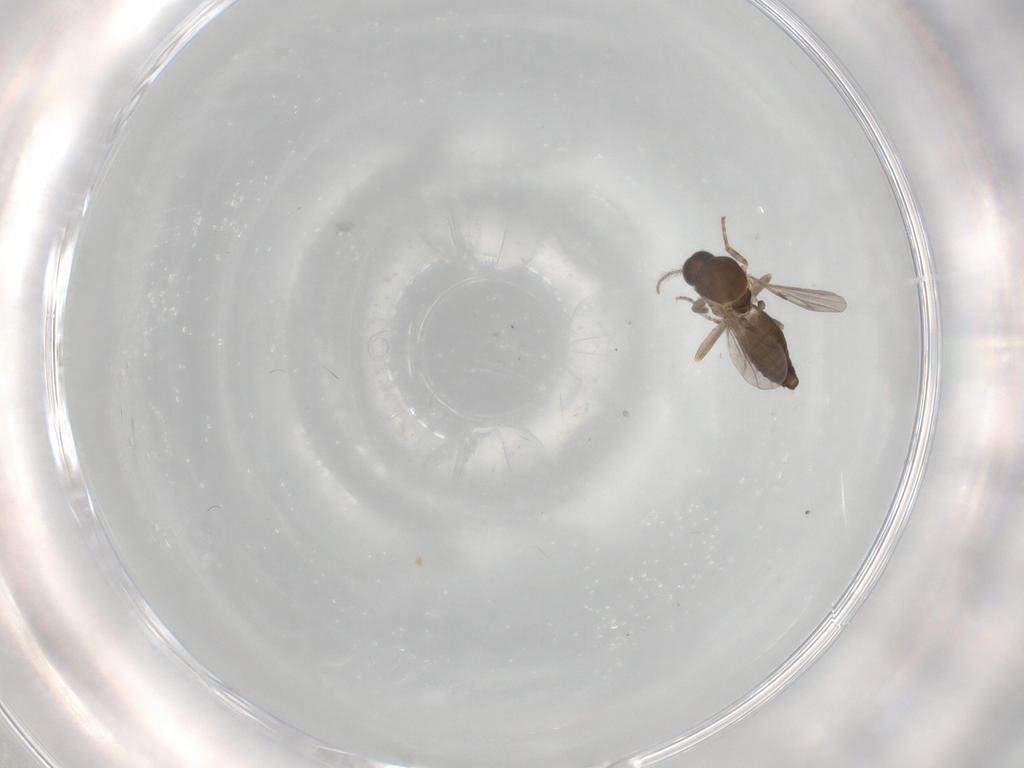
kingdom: Animalia
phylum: Arthropoda
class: Insecta
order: Diptera
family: Ceratopogonidae
